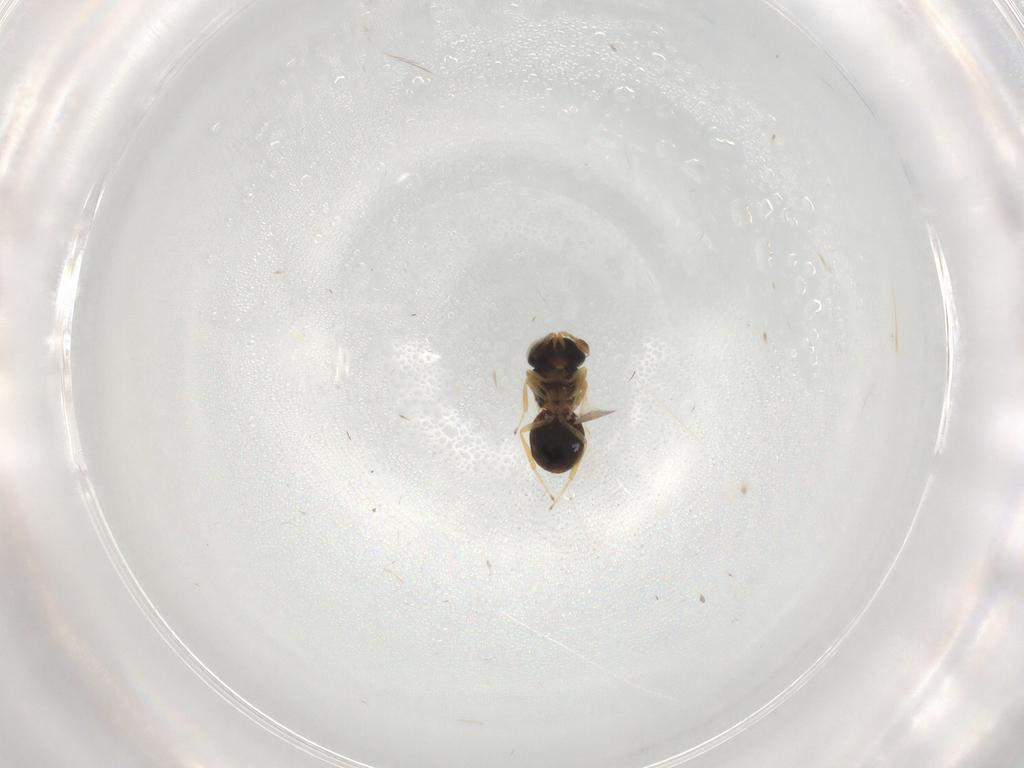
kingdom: Animalia
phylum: Arthropoda
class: Insecta
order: Hymenoptera
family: Scelionidae
